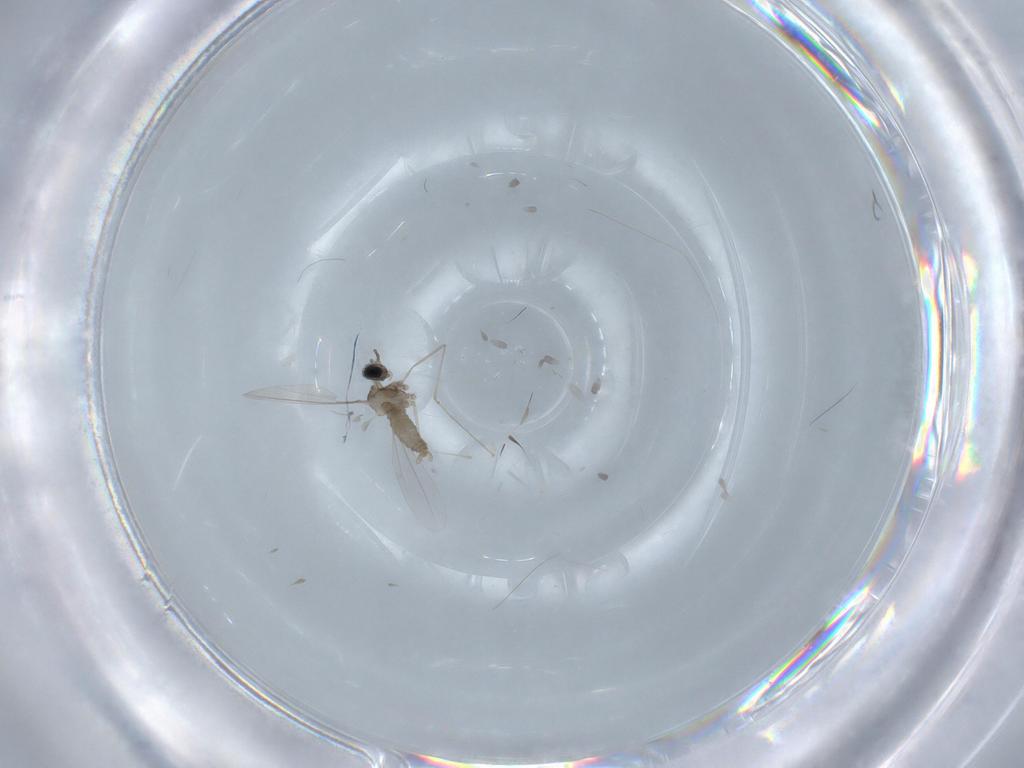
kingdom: Animalia
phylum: Arthropoda
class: Insecta
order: Diptera
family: Cecidomyiidae
